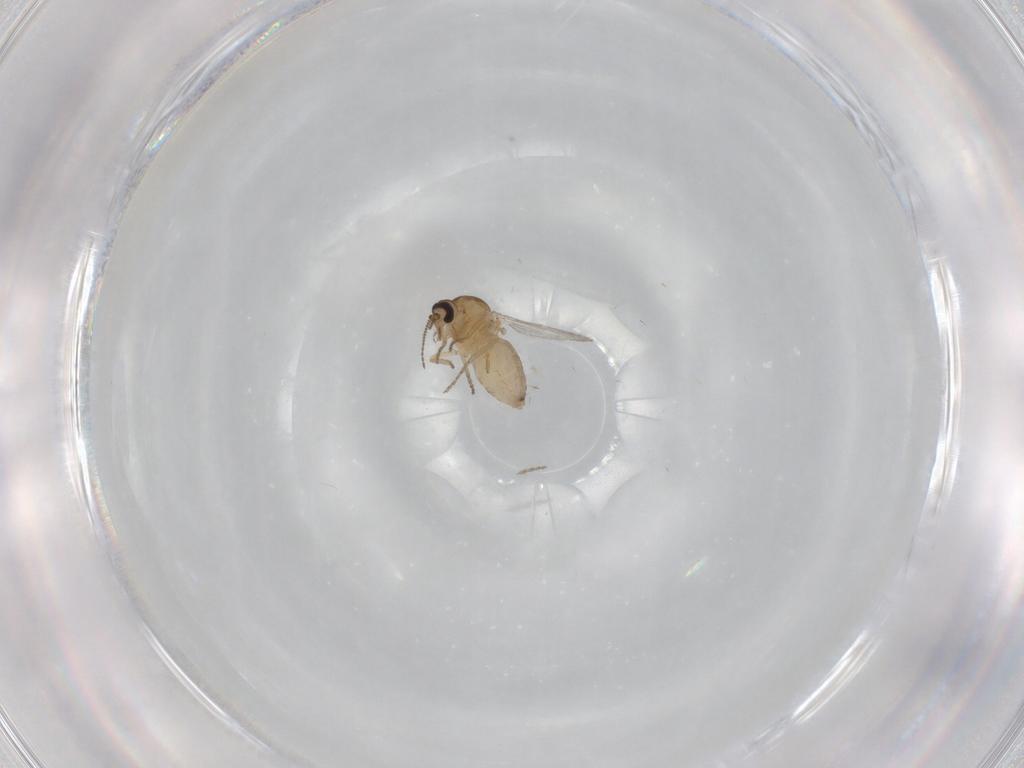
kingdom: Animalia
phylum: Arthropoda
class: Insecta
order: Diptera
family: Ceratopogonidae
